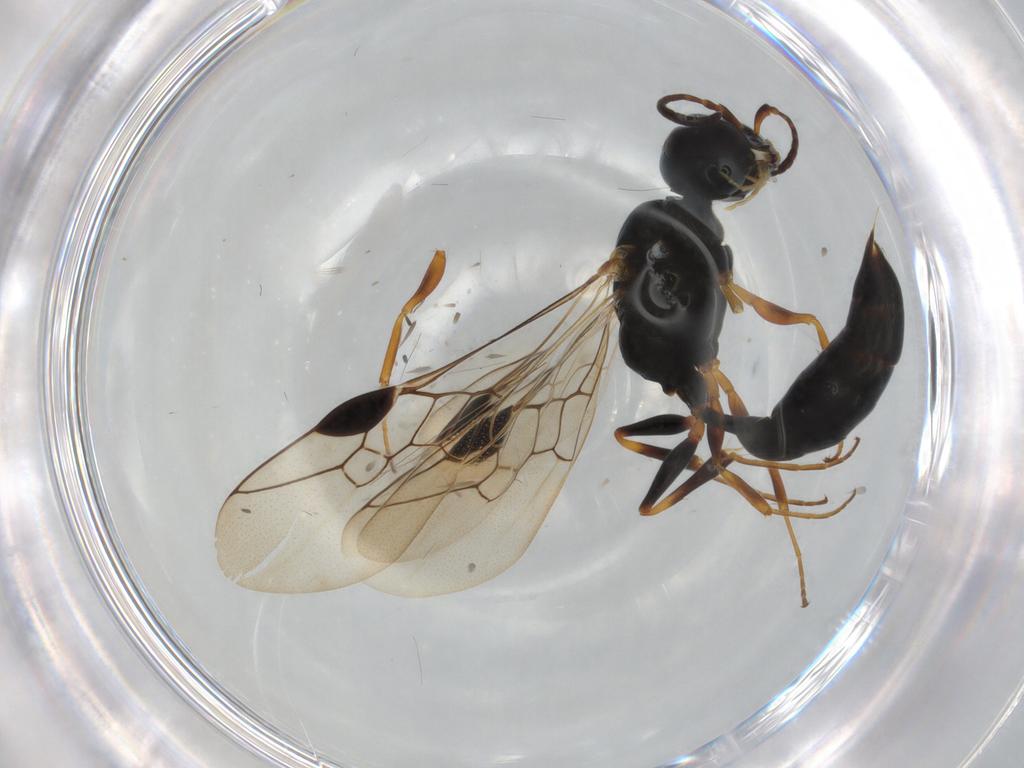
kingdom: Animalia
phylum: Arthropoda
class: Insecta
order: Hymenoptera
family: Pemphredonidae
